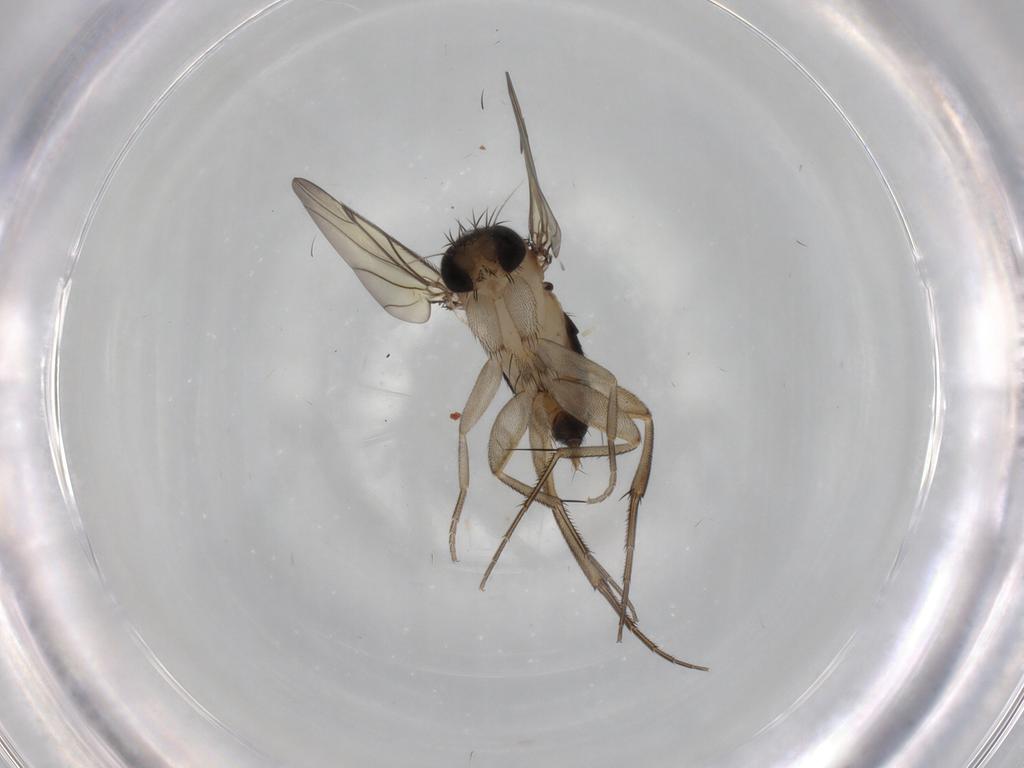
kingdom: Animalia
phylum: Arthropoda
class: Insecta
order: Diptera
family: Phoridae
